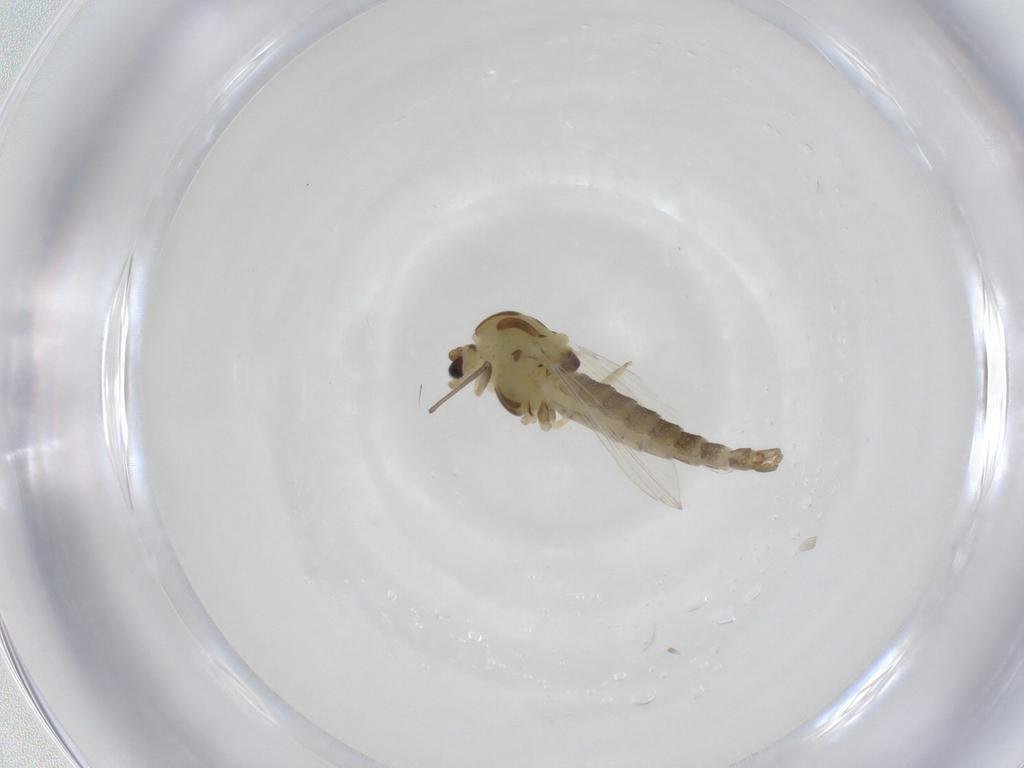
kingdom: Animalia
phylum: Arthropoda
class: Insecta
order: Diptera
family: Chironomidae
